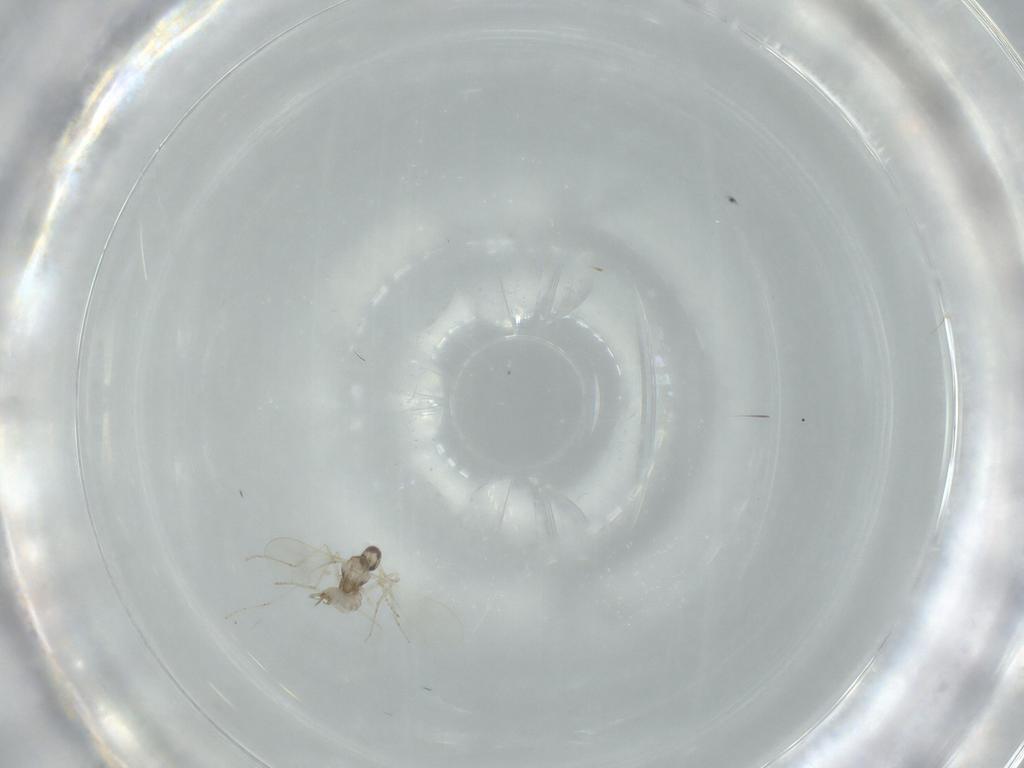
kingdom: Animalia
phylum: Arthropoda
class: Insecta
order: Diptera
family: Cecidomyiidae
